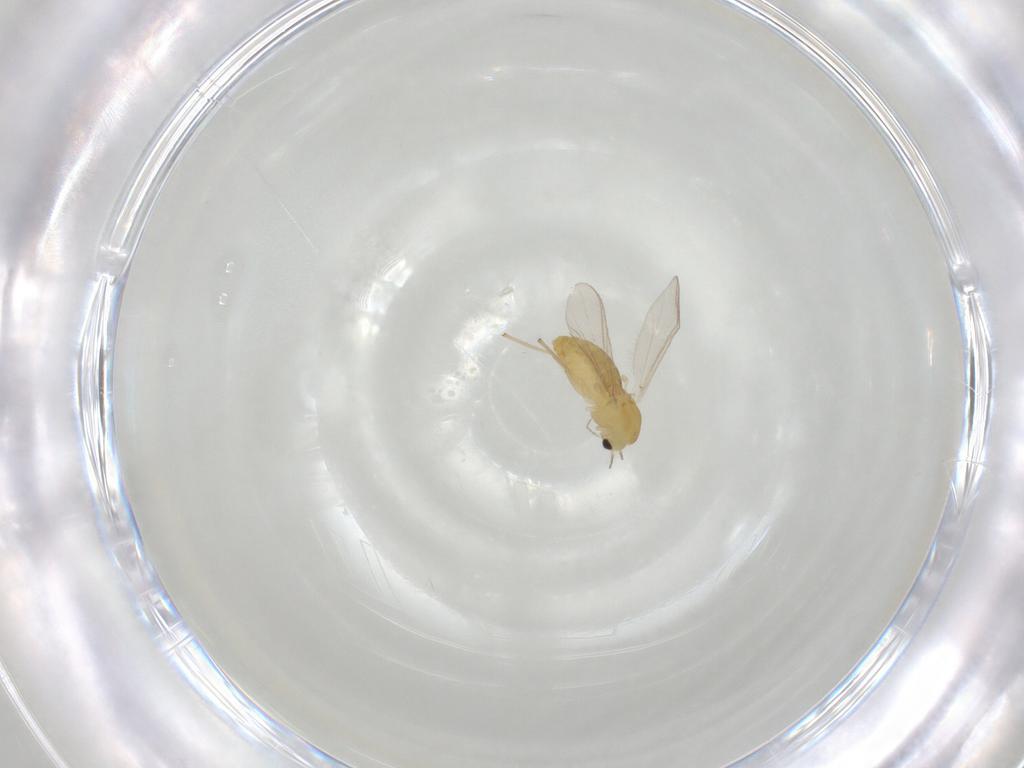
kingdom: Animalia
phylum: Arthropoda
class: Insecta
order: Diptera
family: Chironomidae
